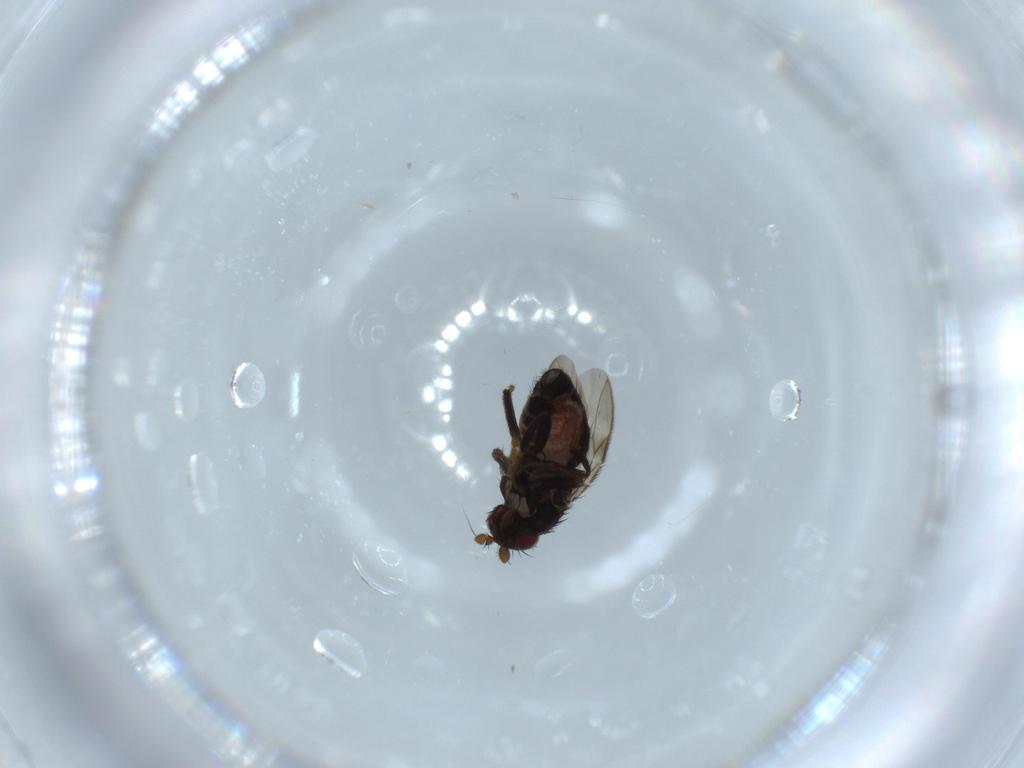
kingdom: Animalia
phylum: Arthropoda
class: Insecta
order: Diptera
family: Sphaeroceridae
